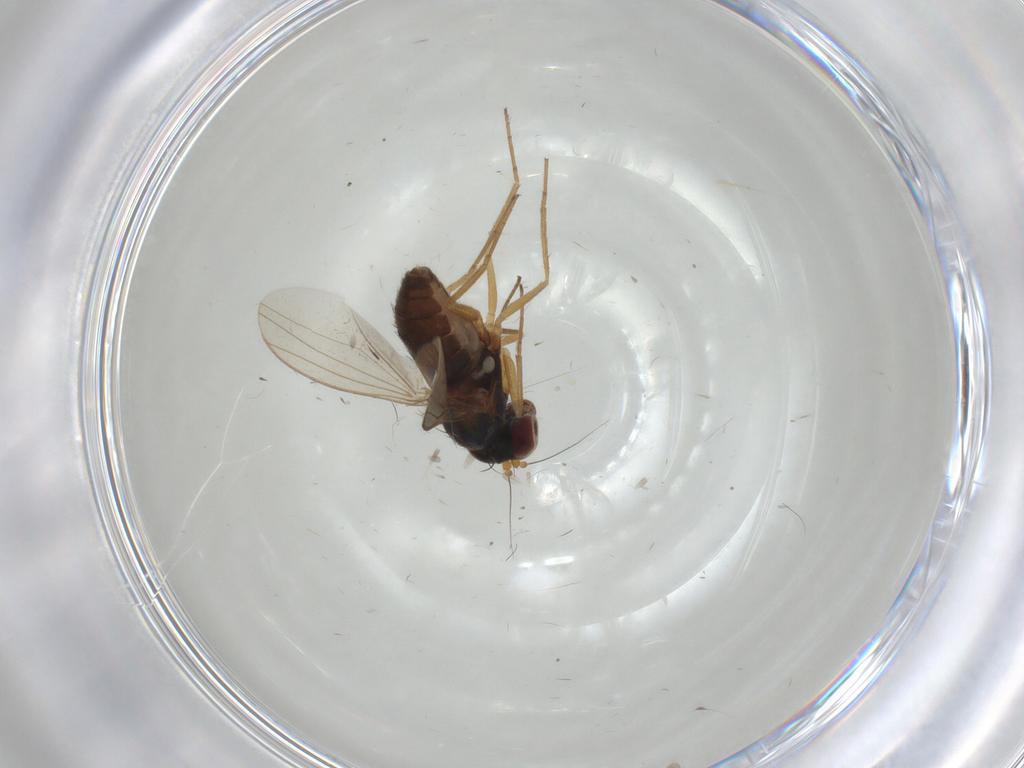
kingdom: Animalia
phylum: Arthropoda
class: Insecta
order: Diptera
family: Dolichopodidae
